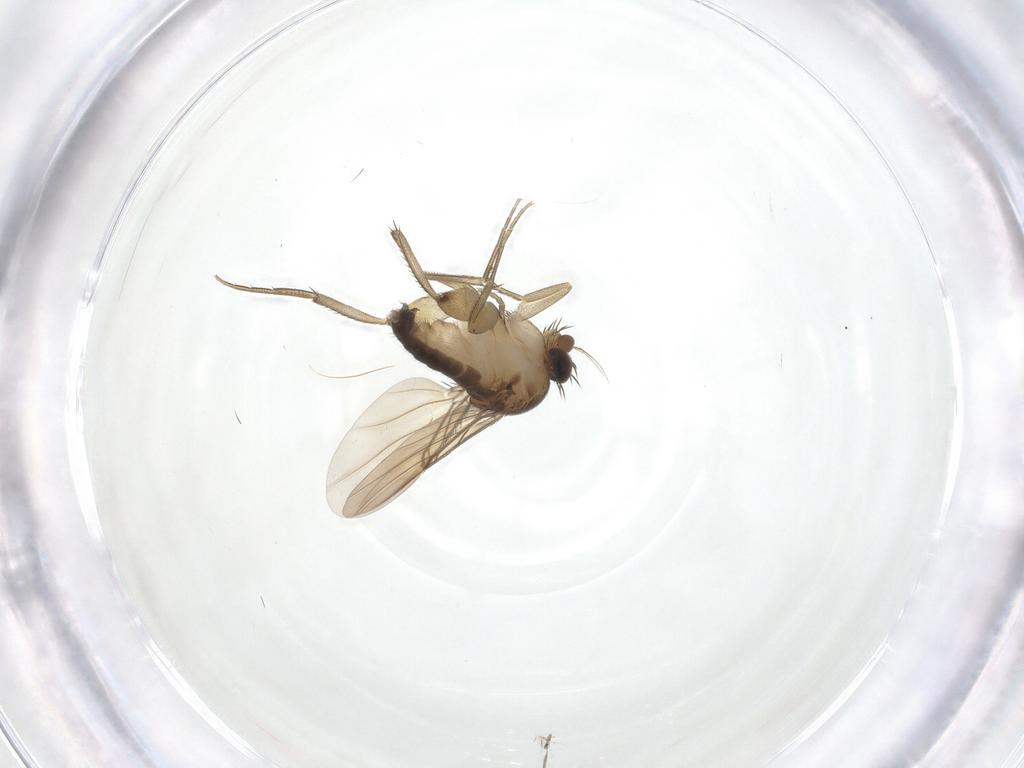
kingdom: Animalia
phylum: Arthropoda
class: Insecta
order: Diptera
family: Phoridae
